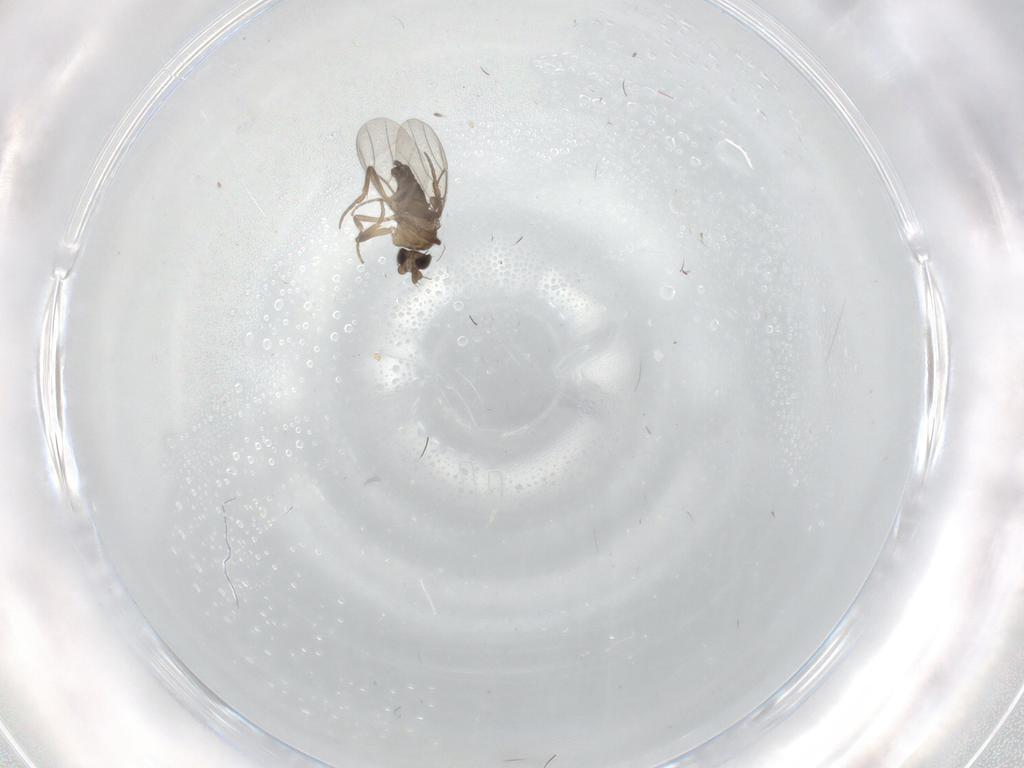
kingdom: Animalia
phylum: Arthropoda
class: Insecta
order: Diptera
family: Phoridae
